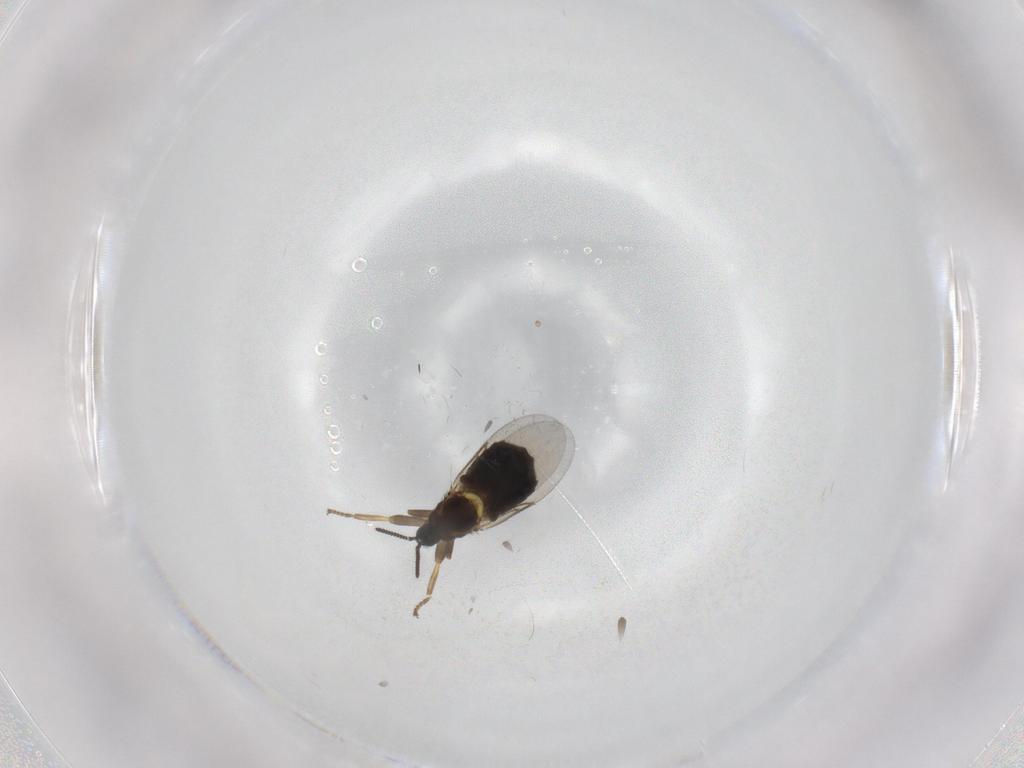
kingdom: Animalia
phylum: Arthropoda
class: Insecta
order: Diptera
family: Scatopsidae
